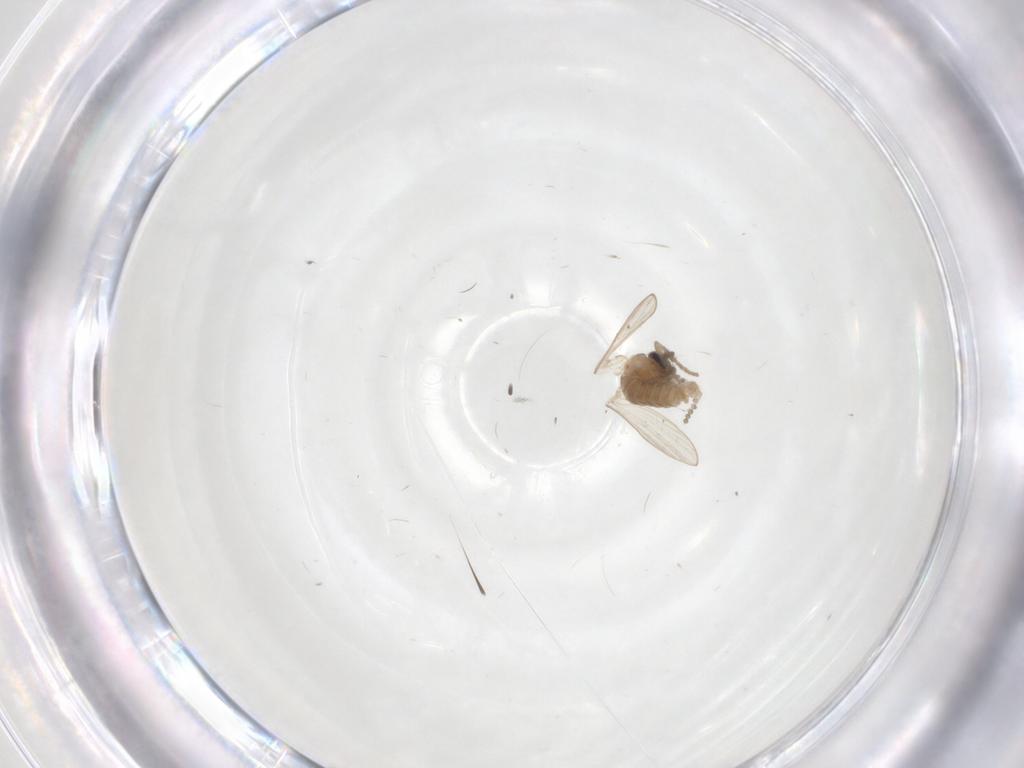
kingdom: Animalia
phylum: Arthropoda
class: Insecta
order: Diptera
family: Psychodidae
